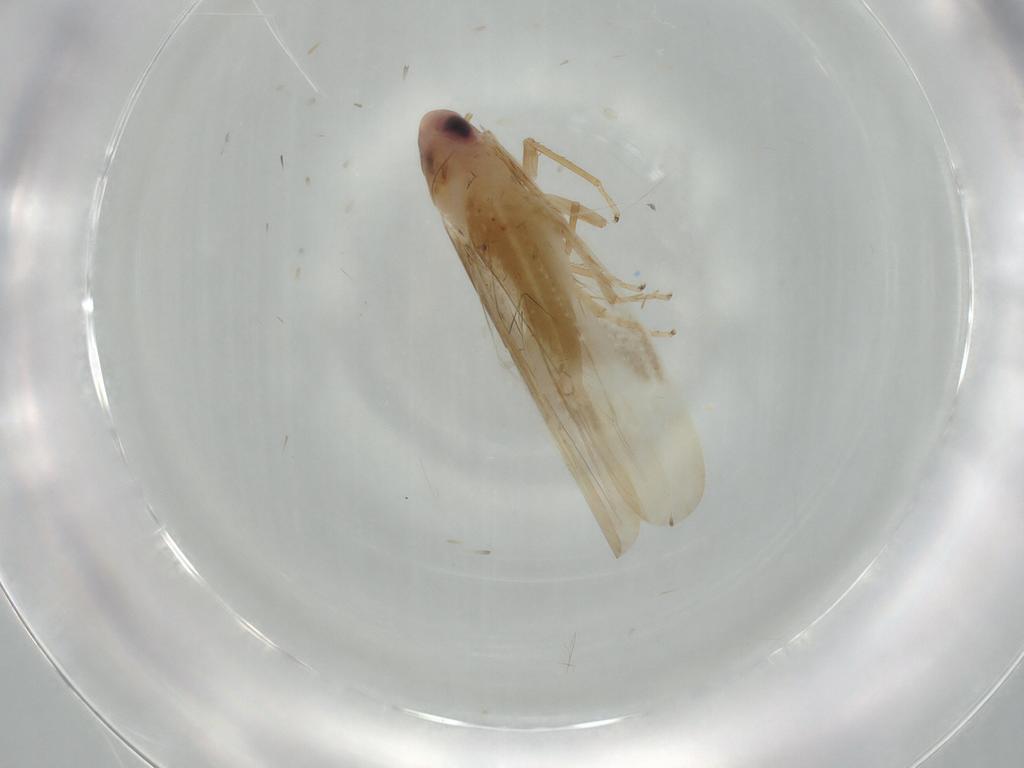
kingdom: Animalia
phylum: Arthropoda
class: Insecta
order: Hemiptera
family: Cicadellidae
